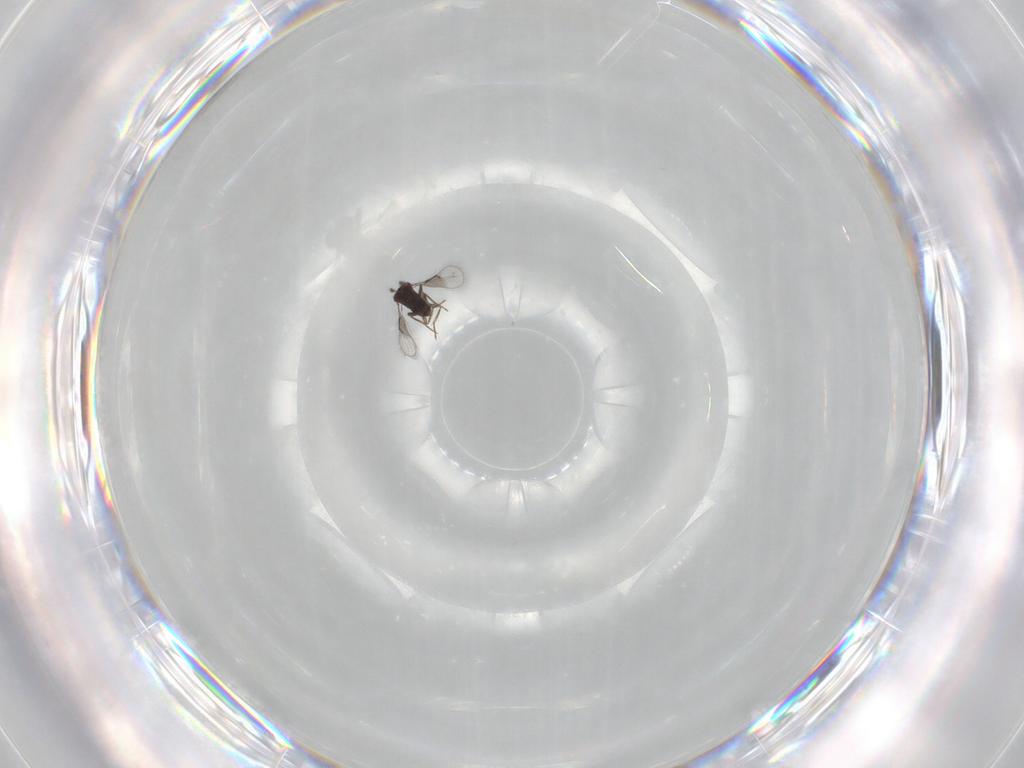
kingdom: Animalia
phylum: Arthropoda
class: Insecta
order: Hymenoptera
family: Trichogrammatidae
